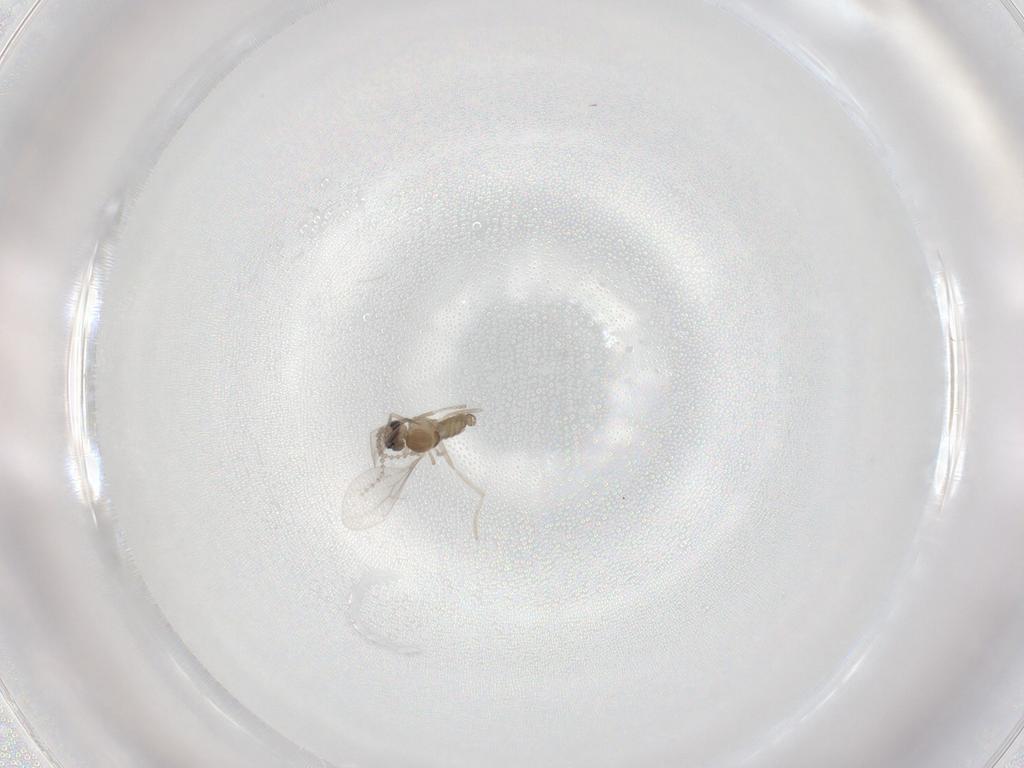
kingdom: Animalia
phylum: Arthropoda
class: Insecta
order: Diptera
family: Cecidomyiidae
